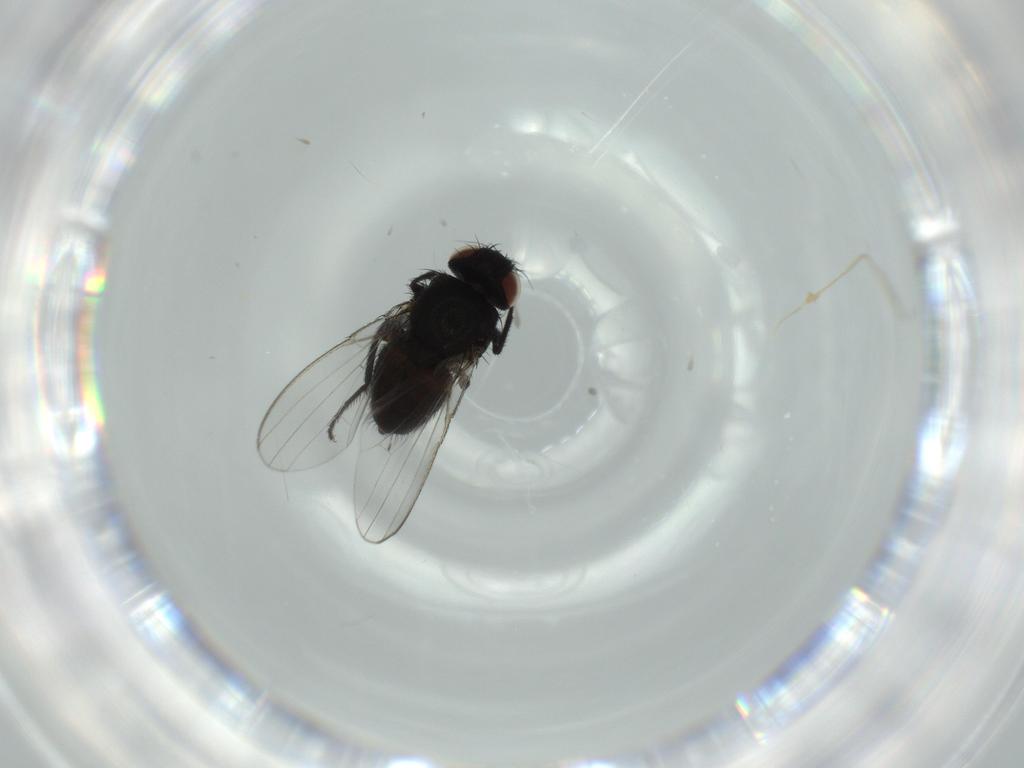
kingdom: Animalia
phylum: Arthropoda
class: Insecta
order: Diptera
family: Milichiidae
